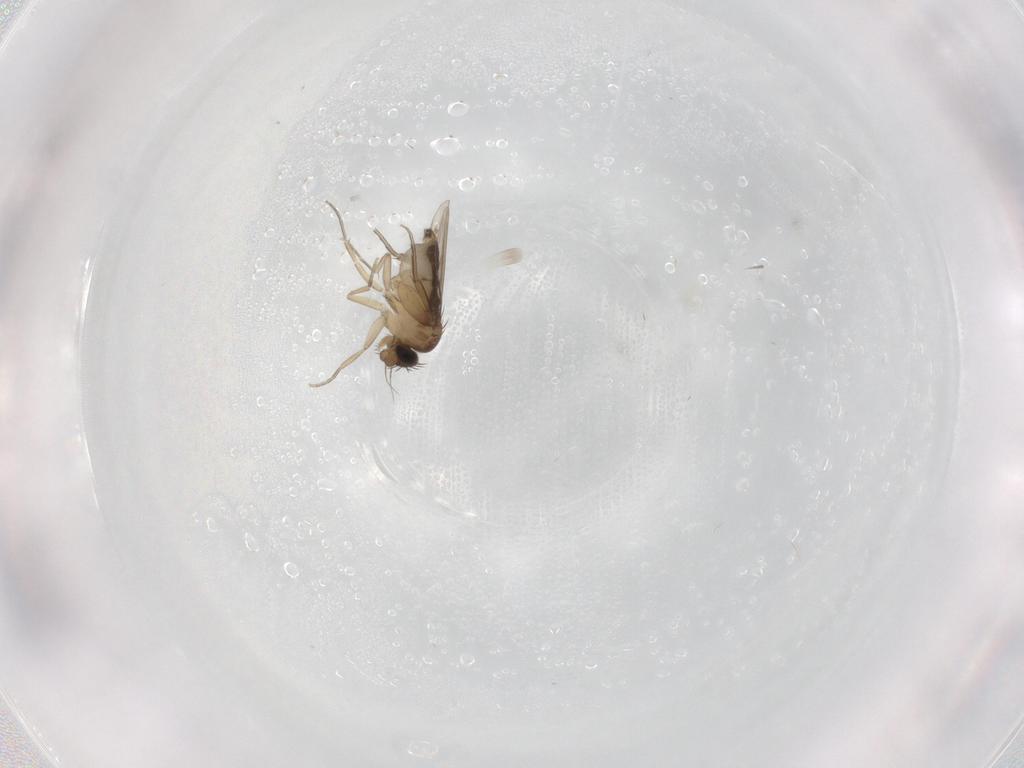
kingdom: Animalia
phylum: Arthropoda
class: Insecta
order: Diptera
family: Phoridae
